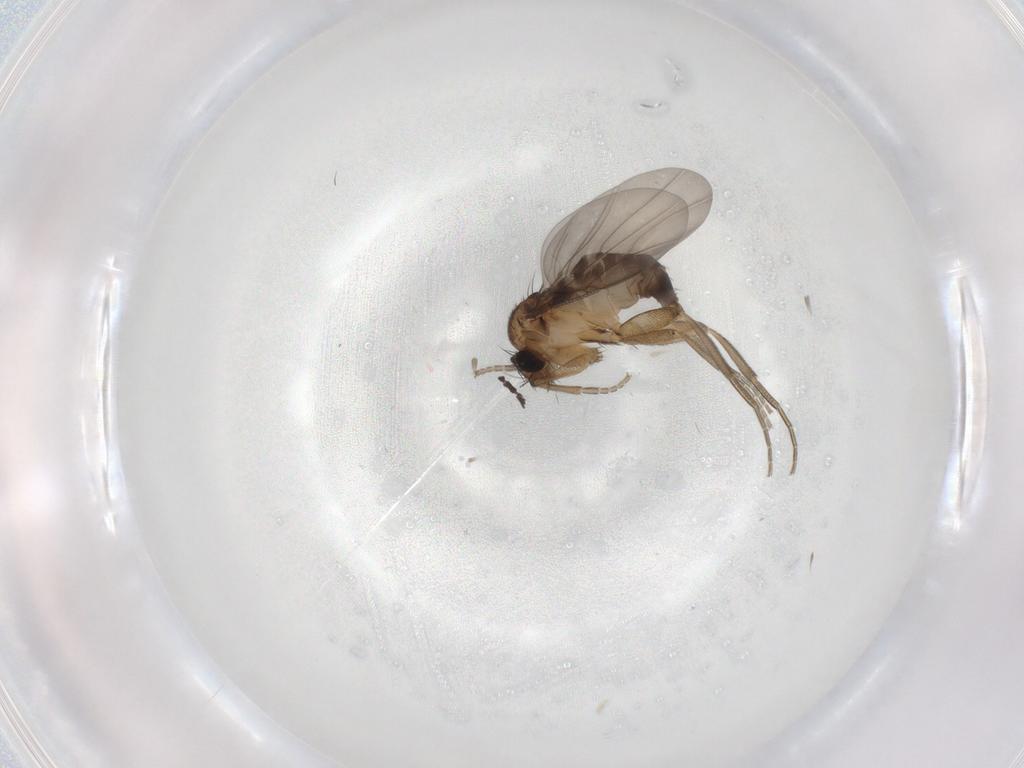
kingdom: Animalia
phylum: Arthropoda
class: Insecta
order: Diptera
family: Phoridae
